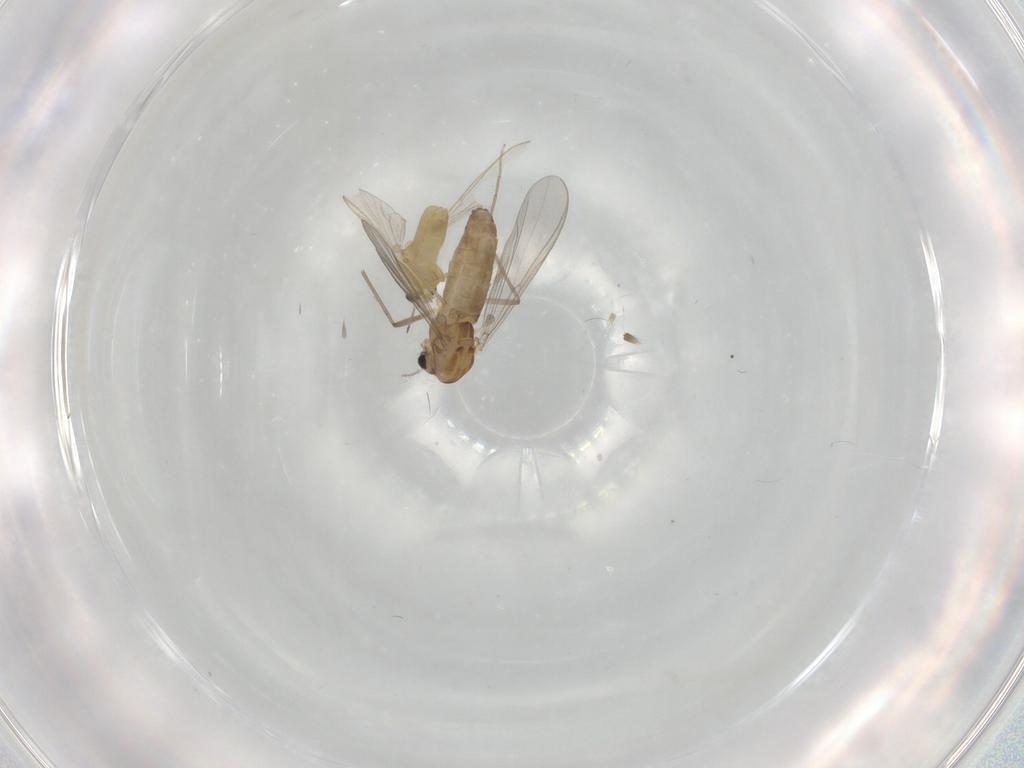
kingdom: Animalia
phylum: Arthropoda
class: Insecta
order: Diptera
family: Chironomidae
